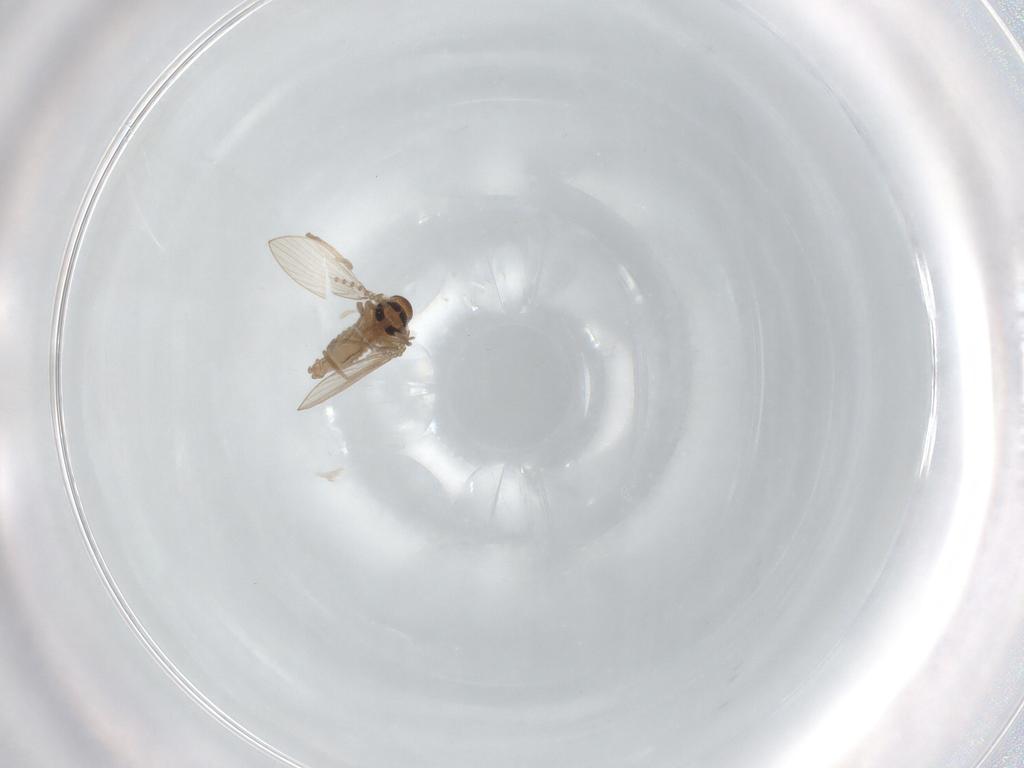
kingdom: Animalia
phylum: Arthropoda
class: Insecta
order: Diptera
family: Psychodidae
